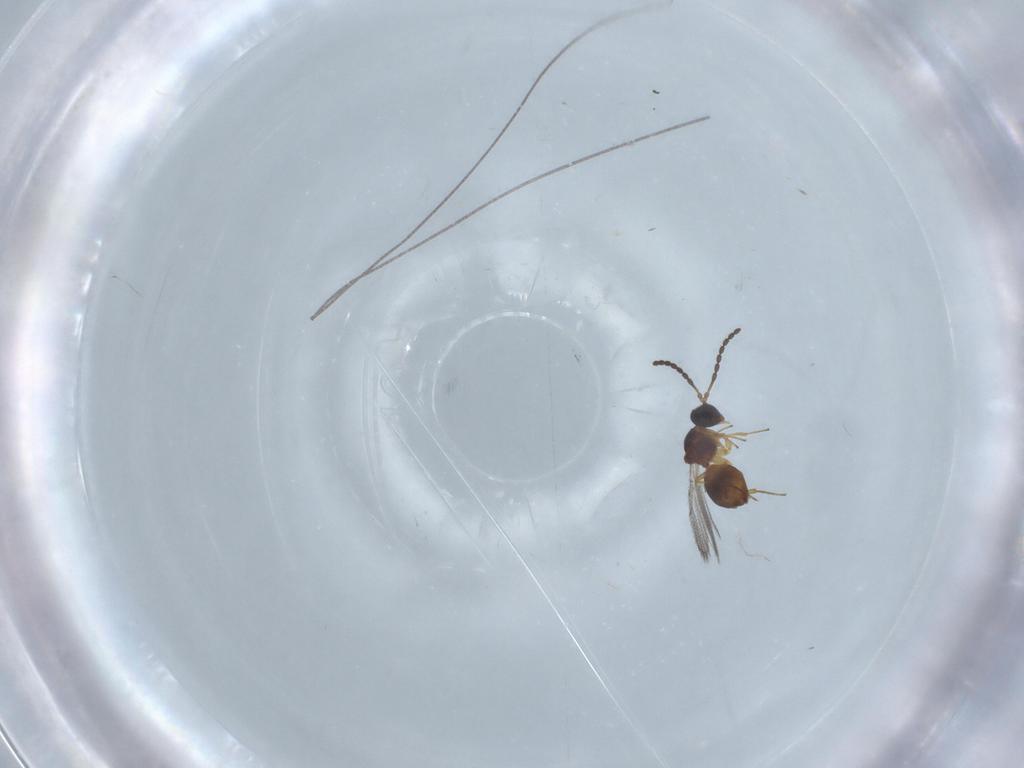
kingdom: Animalia
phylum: Arthropoda
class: Insecta
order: Hymenoptera
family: Figitidae
